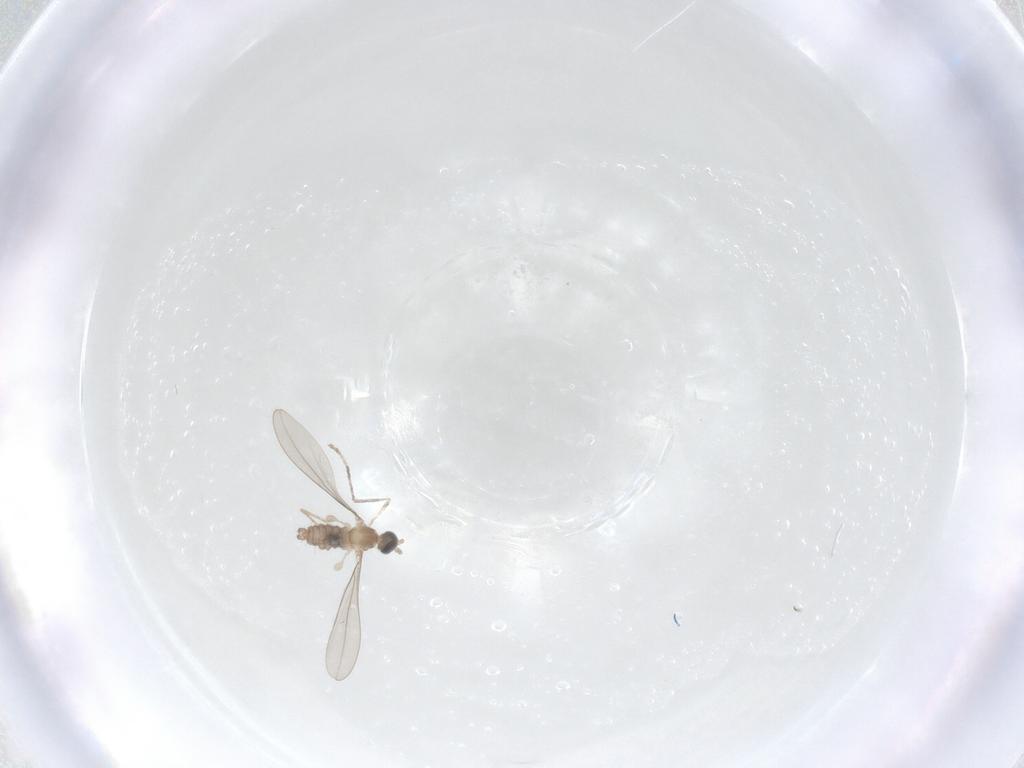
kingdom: Animalia
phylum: Arthropoda
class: Insecta
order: Diptera
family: Cecidomyiidae
